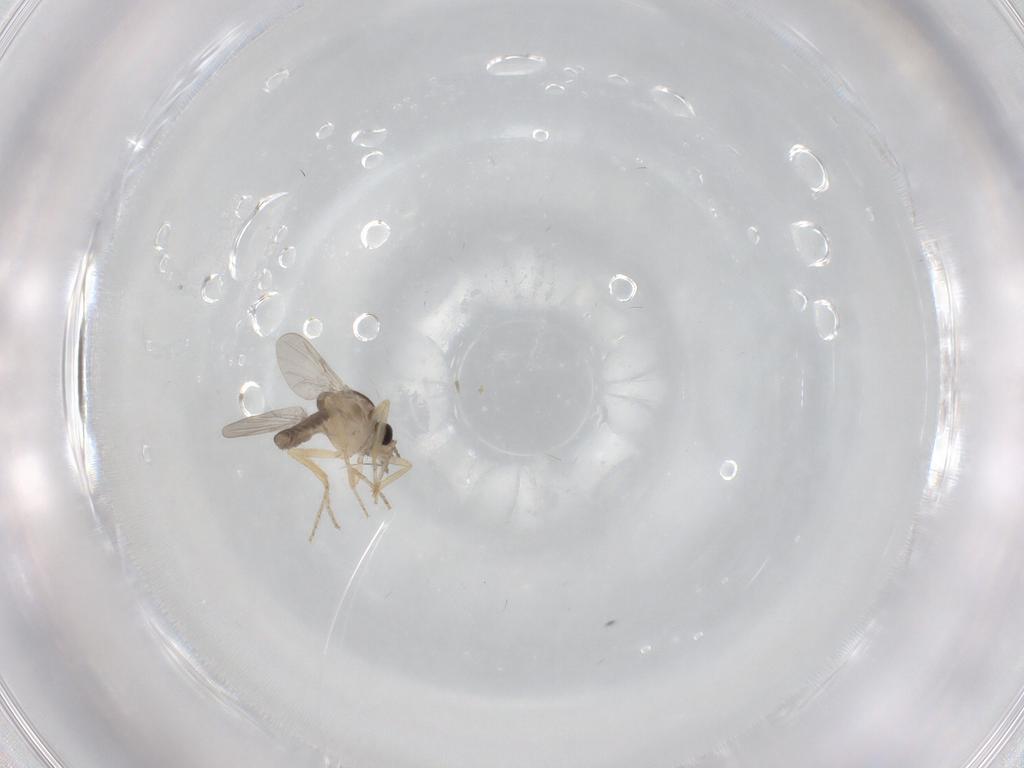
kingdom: Animalia
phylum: Arthropoda
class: Insecta
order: Diptera
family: Ceratopogonidae
